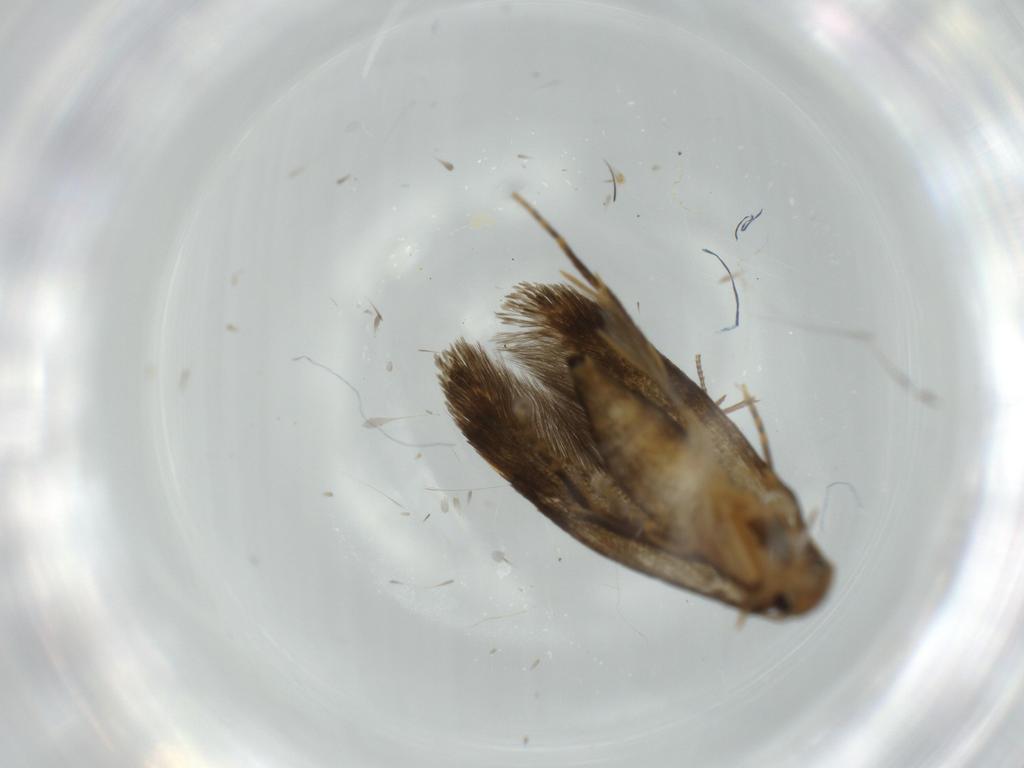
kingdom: Animalia
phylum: Arthropoda
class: Insecta
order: Lepidoptera
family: Tineidae
